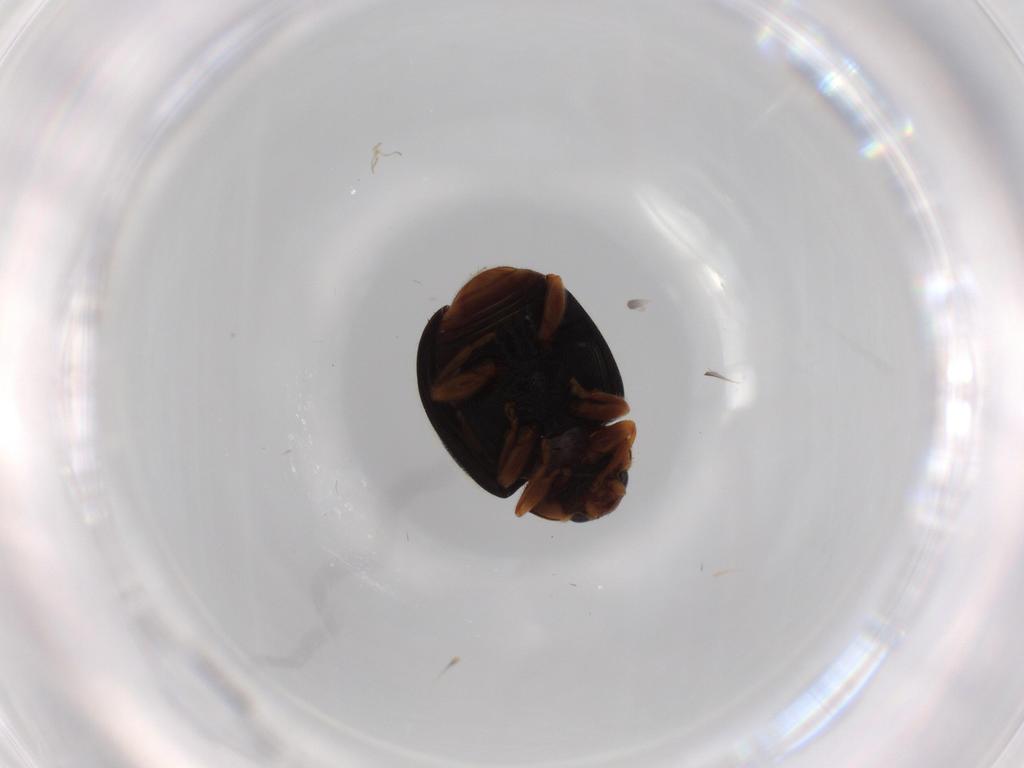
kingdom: Animalia
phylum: Arthropoda
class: Insecta
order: Coleoptera
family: Coccinellidae
